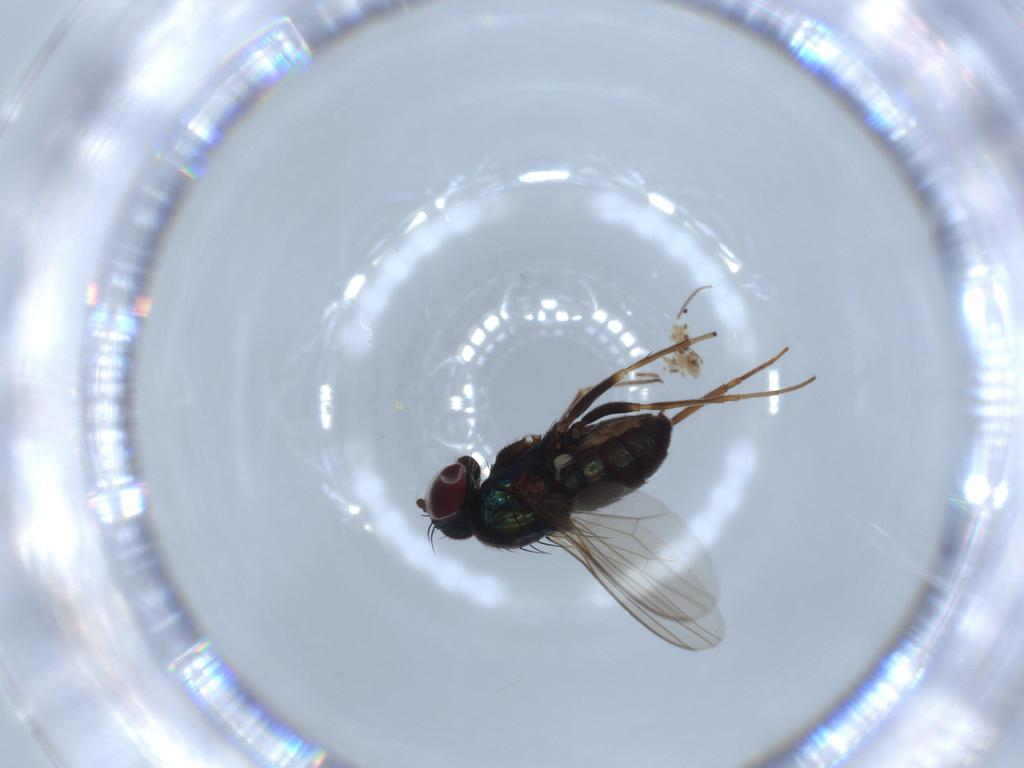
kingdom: Animalia
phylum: Arthropoda
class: Insecta
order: Diptera
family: Dolichopodidae
